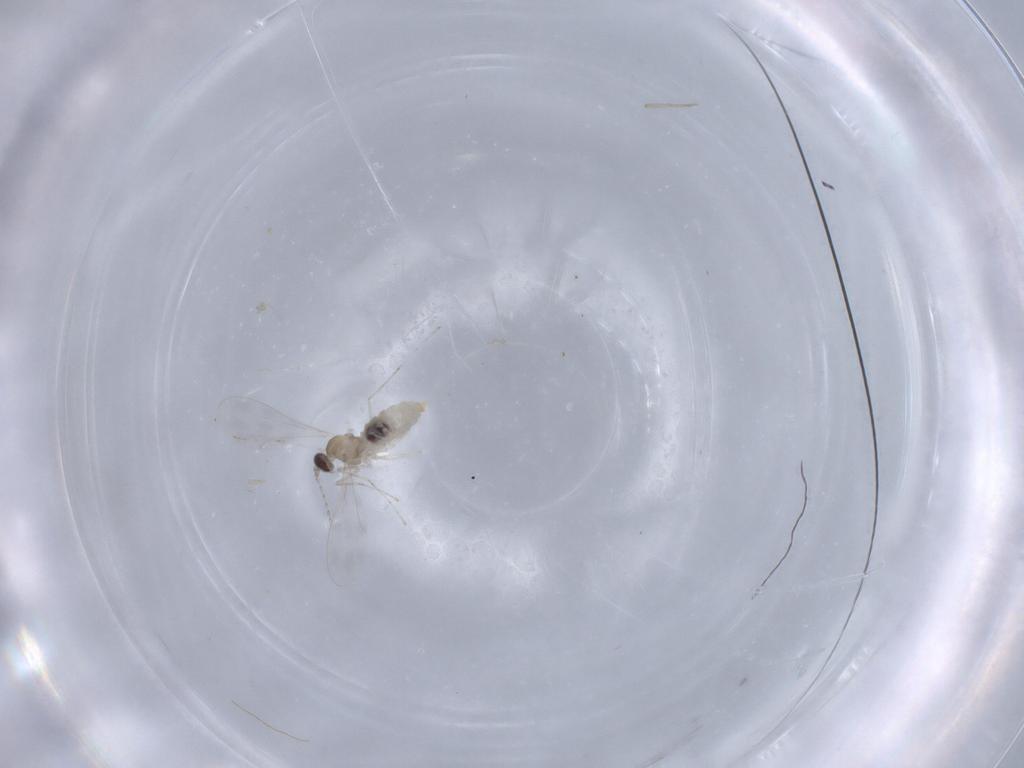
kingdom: Animalia
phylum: Arthropoda
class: Insecta
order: Diptera
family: Cecidomyiidae
